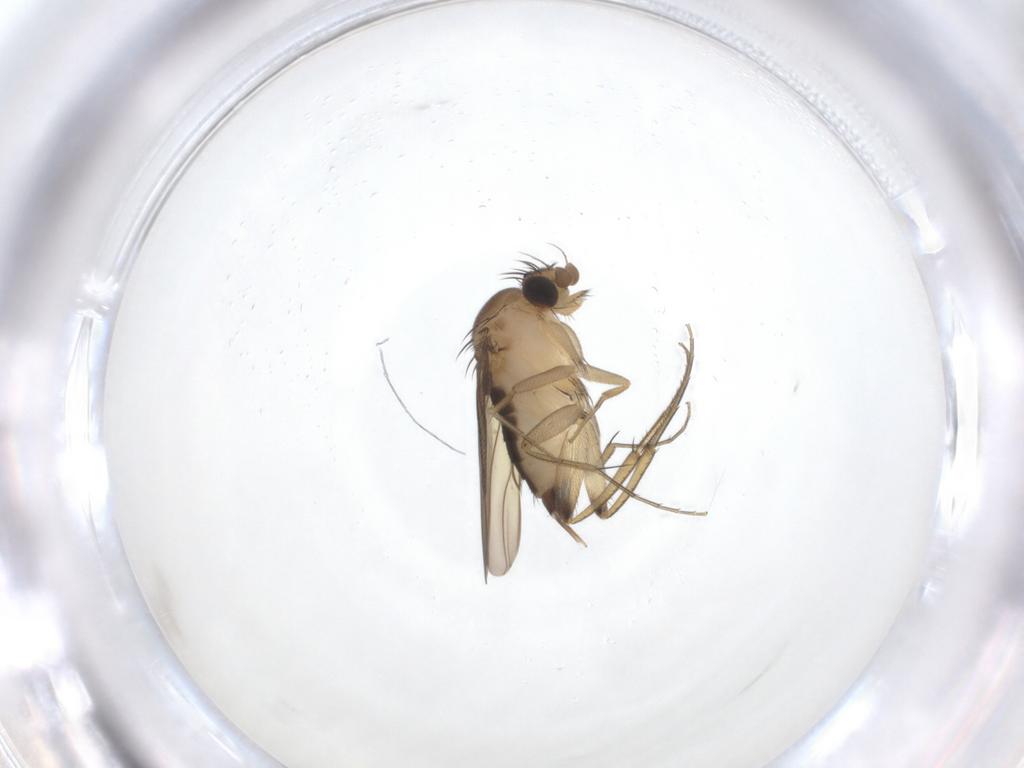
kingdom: Animalia
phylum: Arthropoda
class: Insecta
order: Diptera
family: Phoridae
